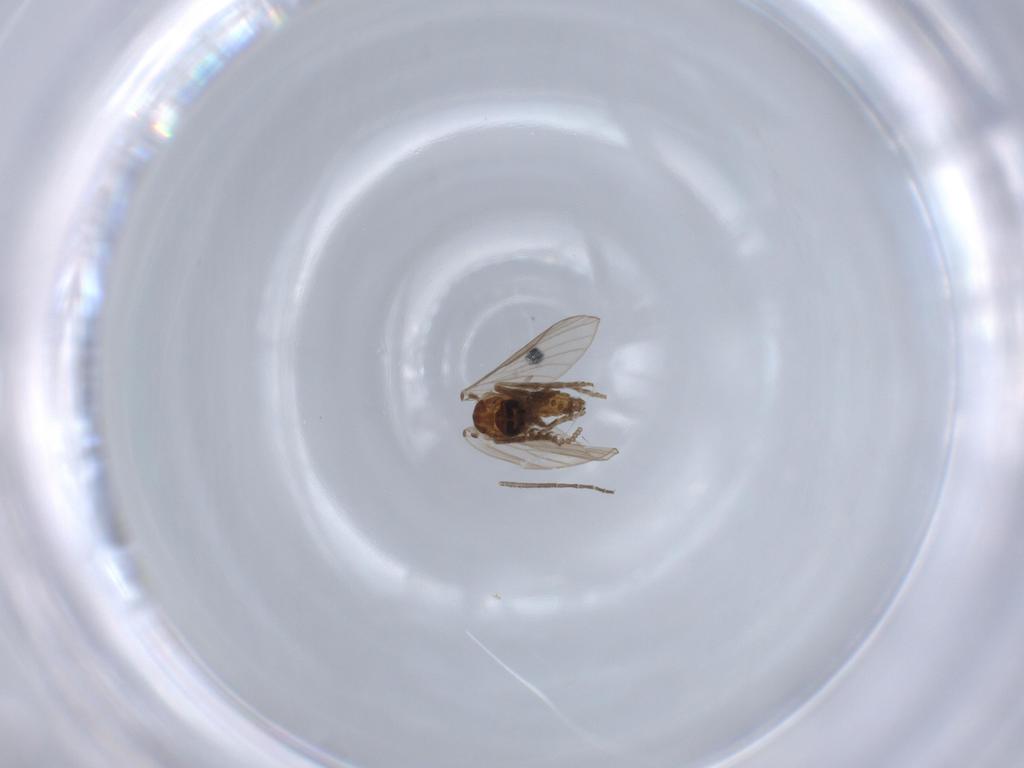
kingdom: Animalia
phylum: Arthropoda
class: Insecta
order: Diptera
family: Psychodidae
